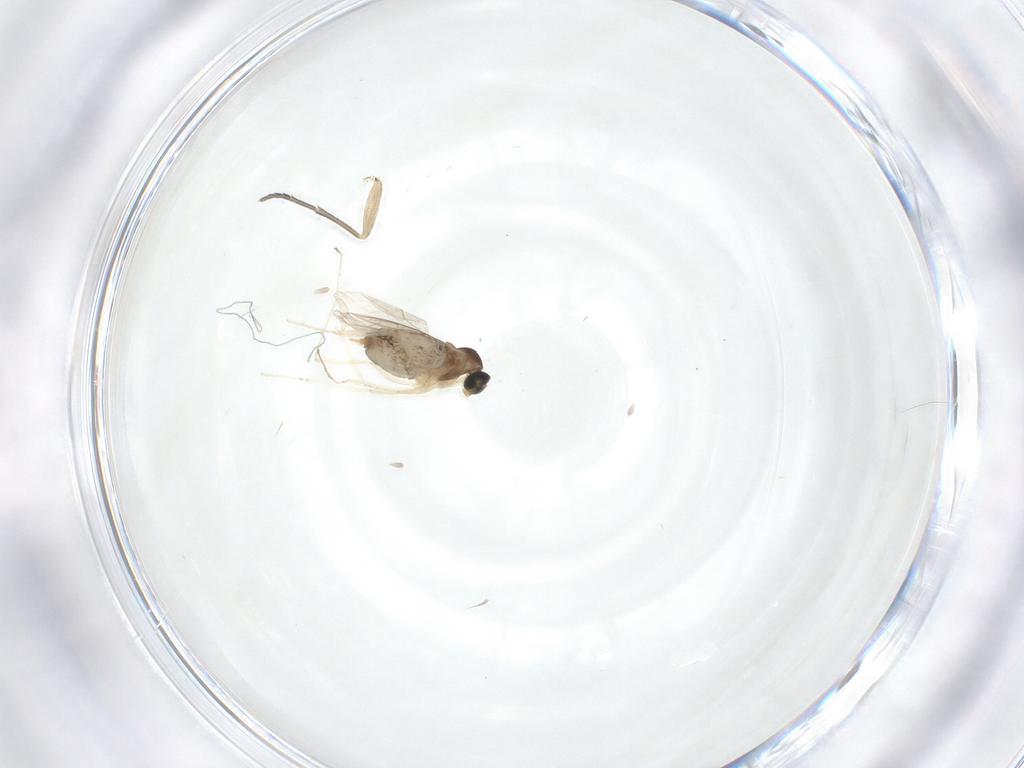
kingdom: Animalia
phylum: Arthropoda
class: Insecta
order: Diptera
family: Cecidomyiidae
